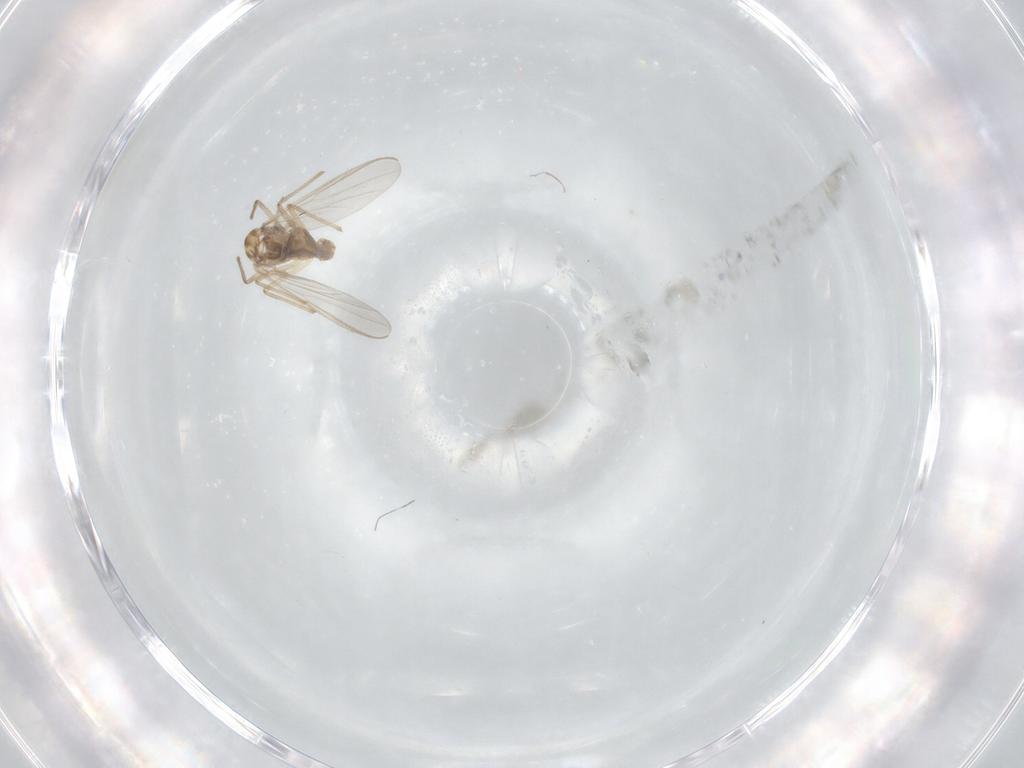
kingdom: Animalia
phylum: Arthropoda
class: Insecta
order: Diptera
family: Chironomidae
